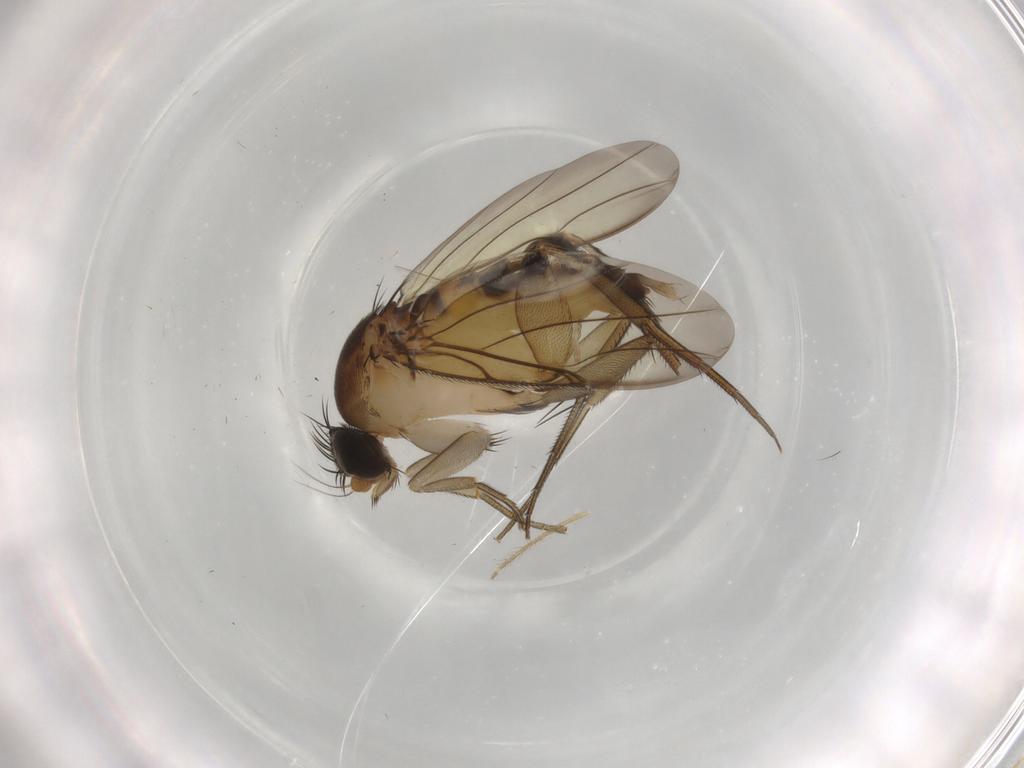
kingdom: Animalia
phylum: Arthropoda
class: Insecta
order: Diptera
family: Phoridae
